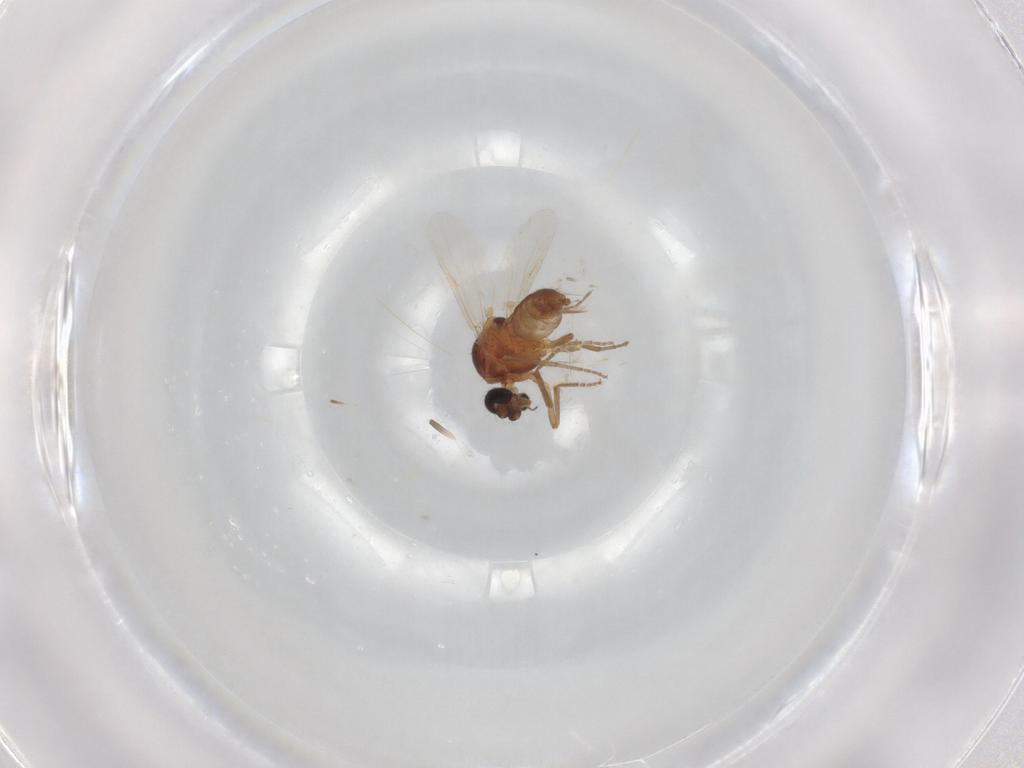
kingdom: Animalia
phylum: Arthropoda
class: Insecta
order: Diptera
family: Ceratopogonidae
